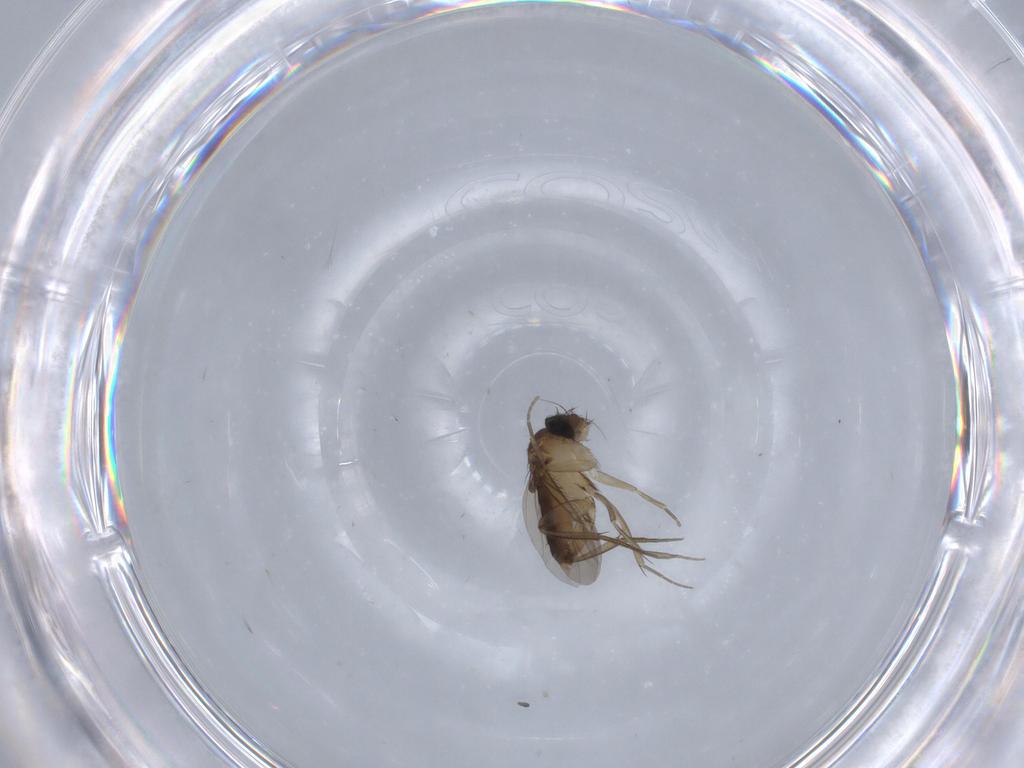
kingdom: Animalia
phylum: Arthropoda
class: Insecta
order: Diptera
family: Phoridae
